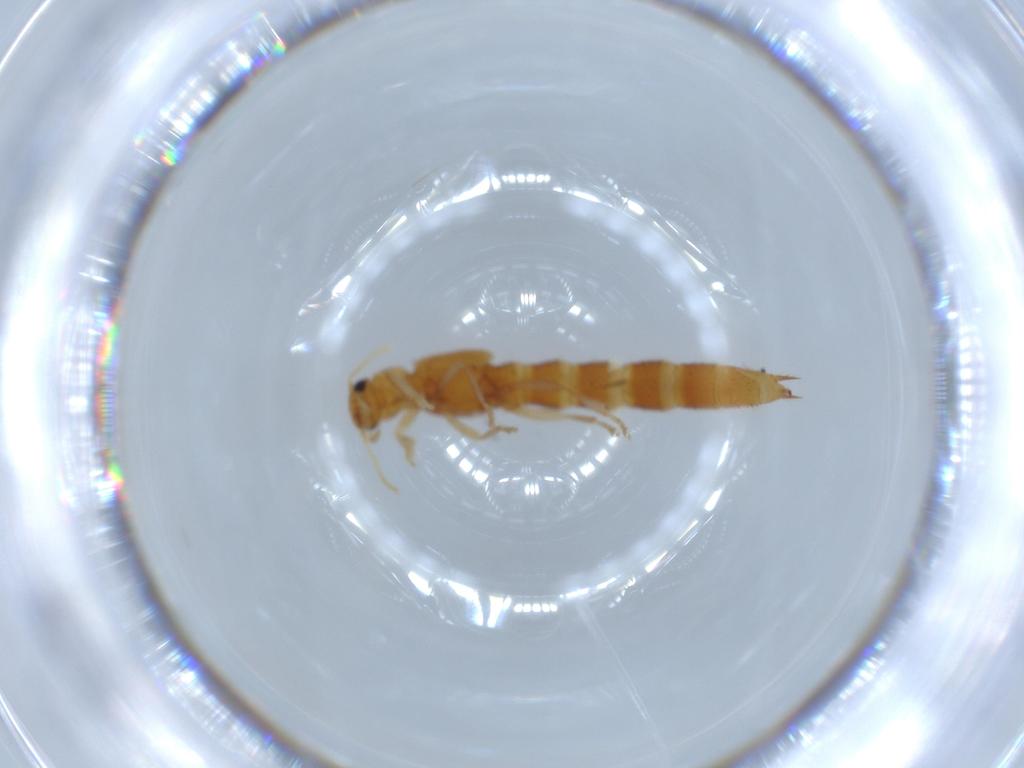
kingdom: Animalia
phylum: Arthropoda
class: Insecta
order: Coleoptera
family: Staphylinidae
